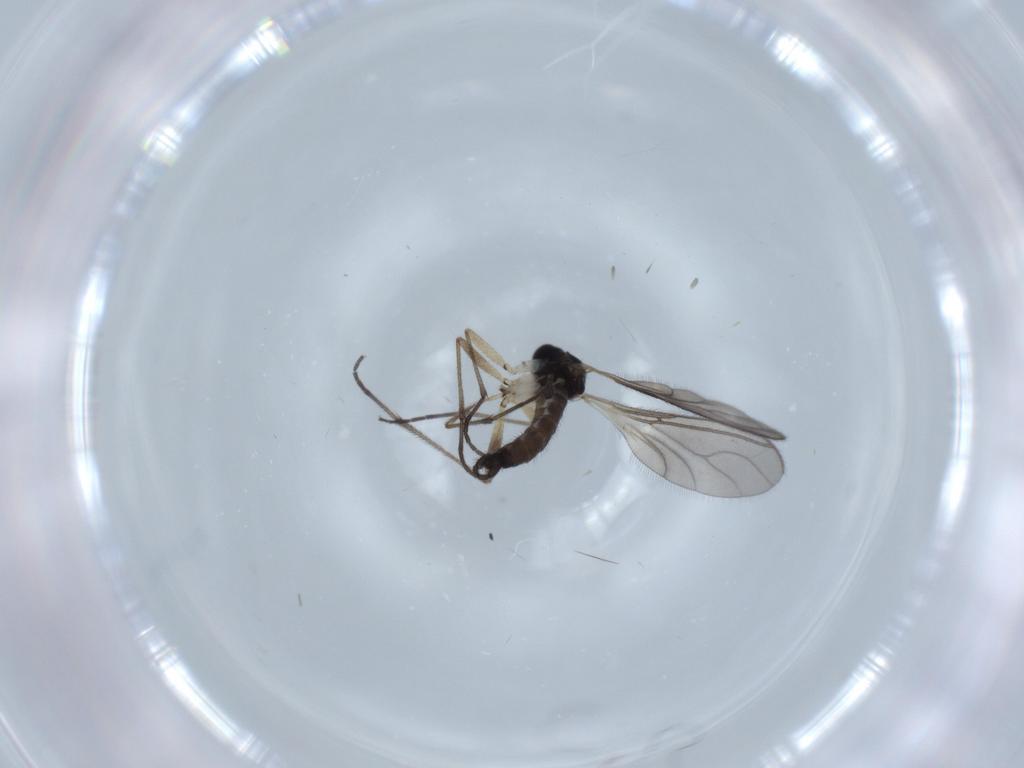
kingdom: Animalia
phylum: Arthropoda
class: Insecta
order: Diptera
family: Sciaridae
